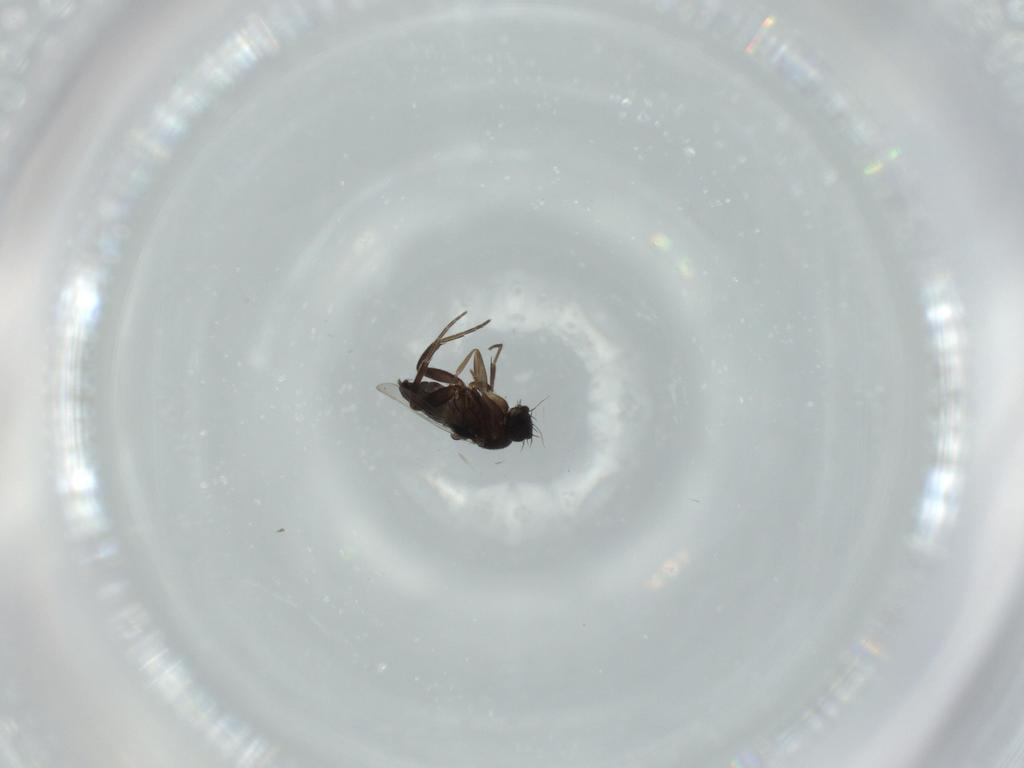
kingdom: Animalia
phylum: Arthropoda
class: Insecta
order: Diptera
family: Phoridae
